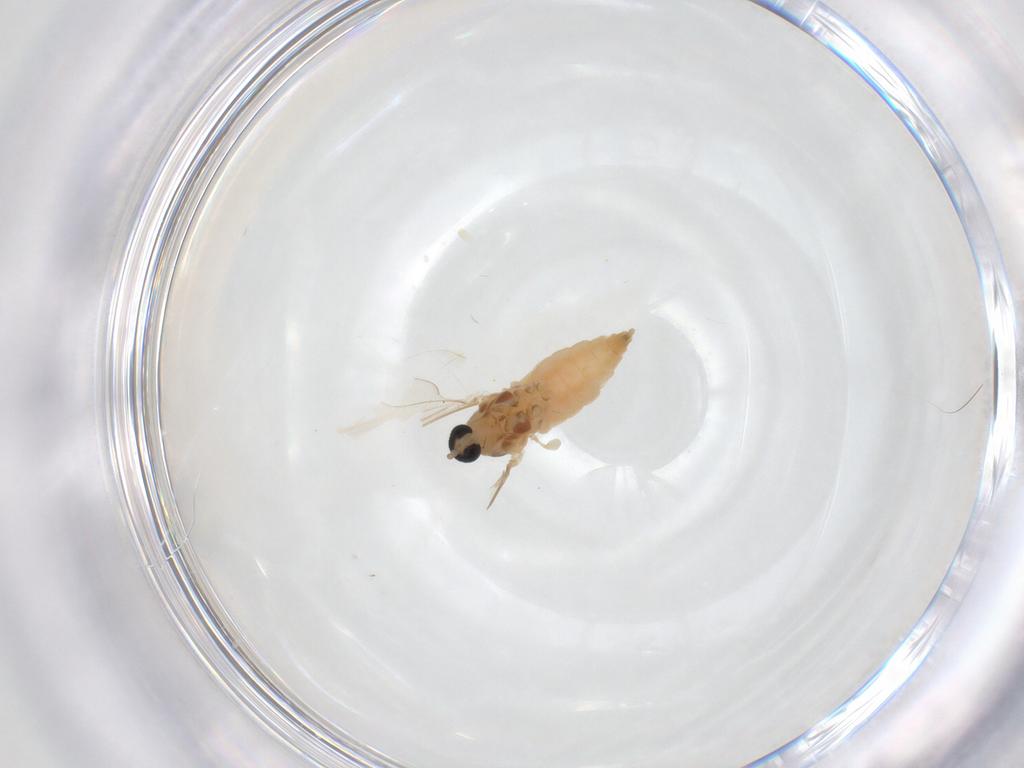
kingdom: Animalia
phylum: Arthropoda
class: Insecta
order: Diptera
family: Cecidomyiidae
